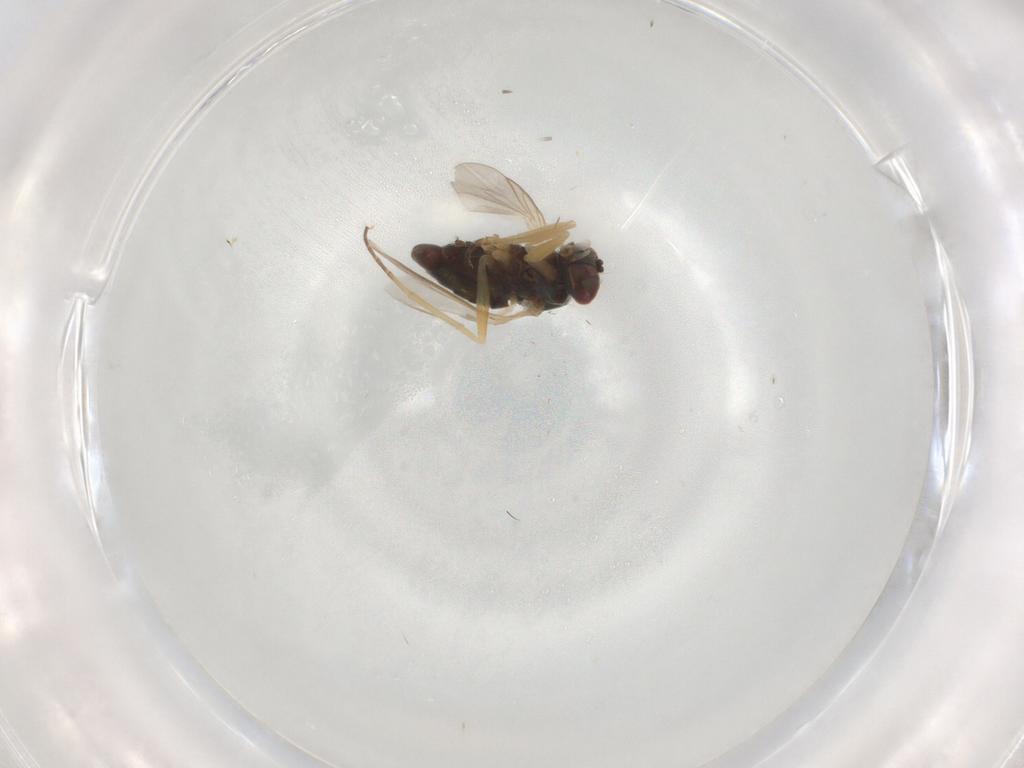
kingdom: Animalia
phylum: Arthropoda
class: Insecta
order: Diptera
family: Dolichopodidae
